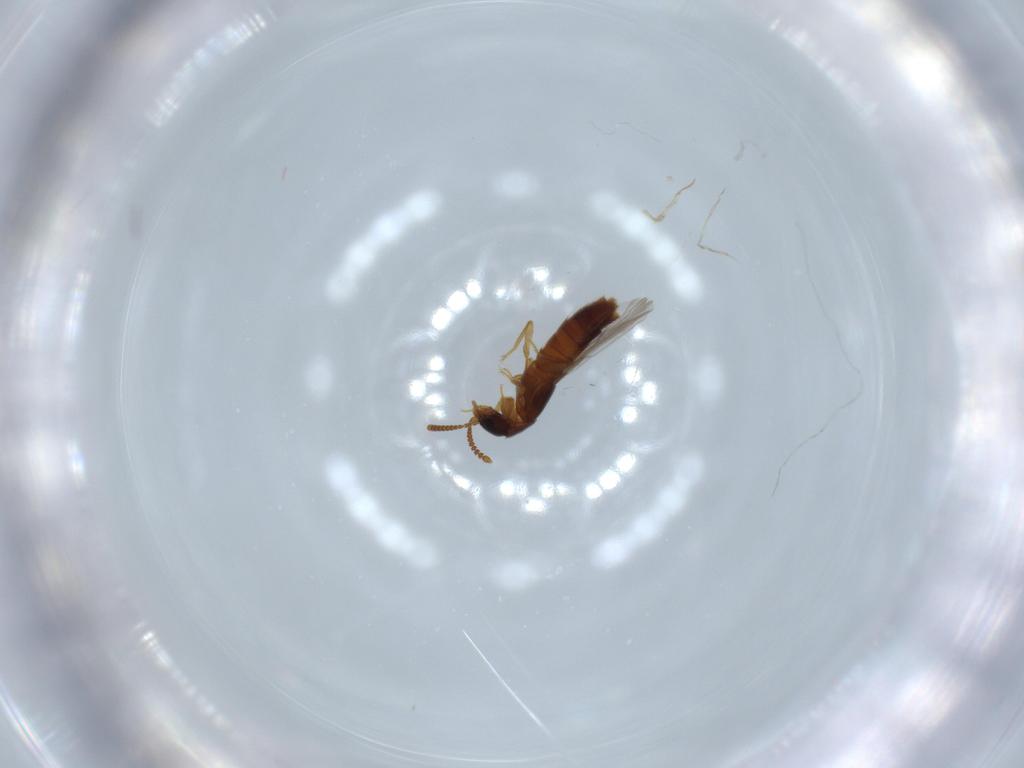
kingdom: Animalia
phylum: Arthropoda
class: Insecta
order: Coleoptera
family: Staphylinidae
